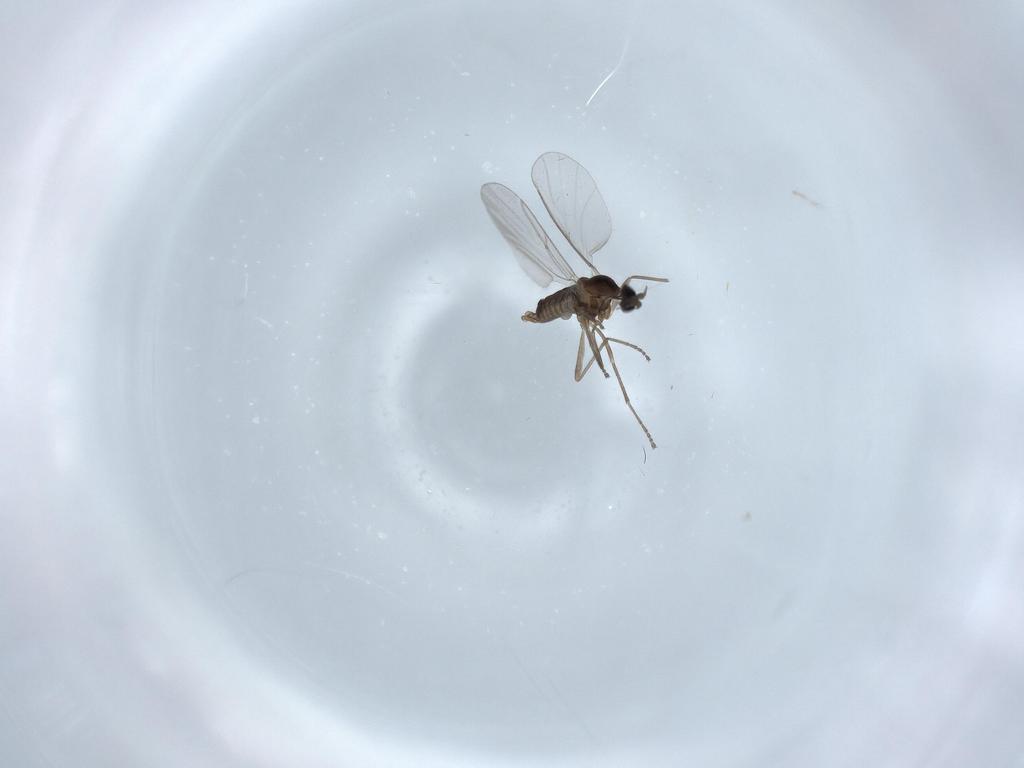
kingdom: Animalia
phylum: Arthropoda
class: Insecta
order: Diptera
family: Cecidomyiidae
